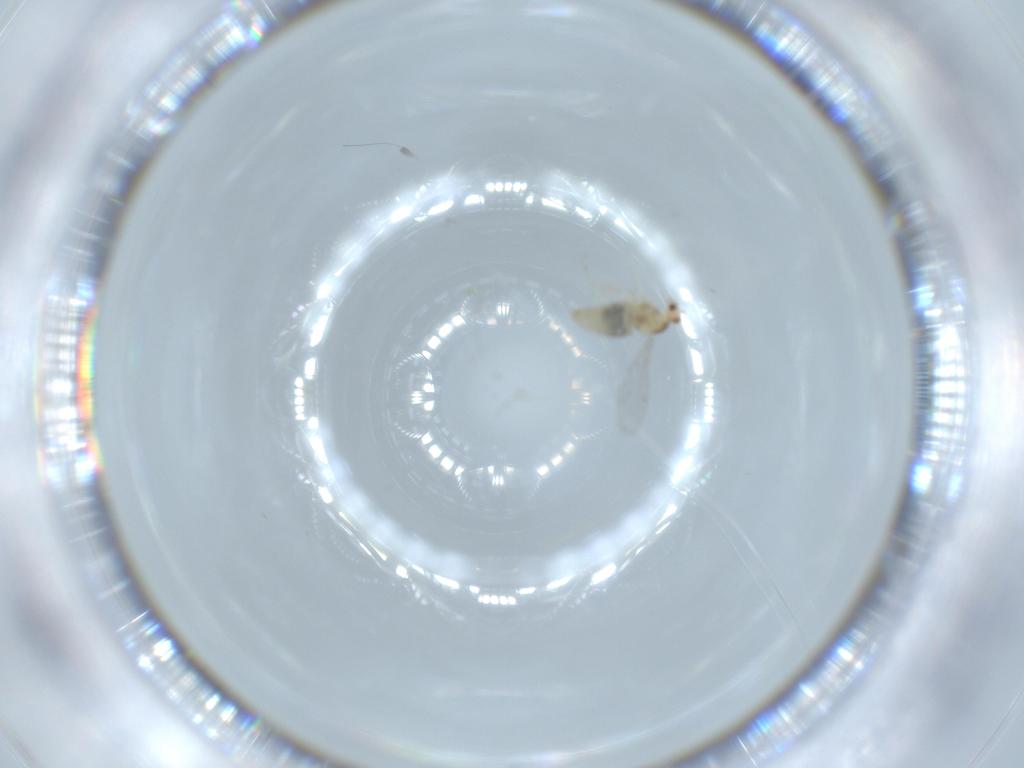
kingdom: Animalia
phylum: Arthropoda
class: Insecta
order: Diptera
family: Cecidomyiidae
